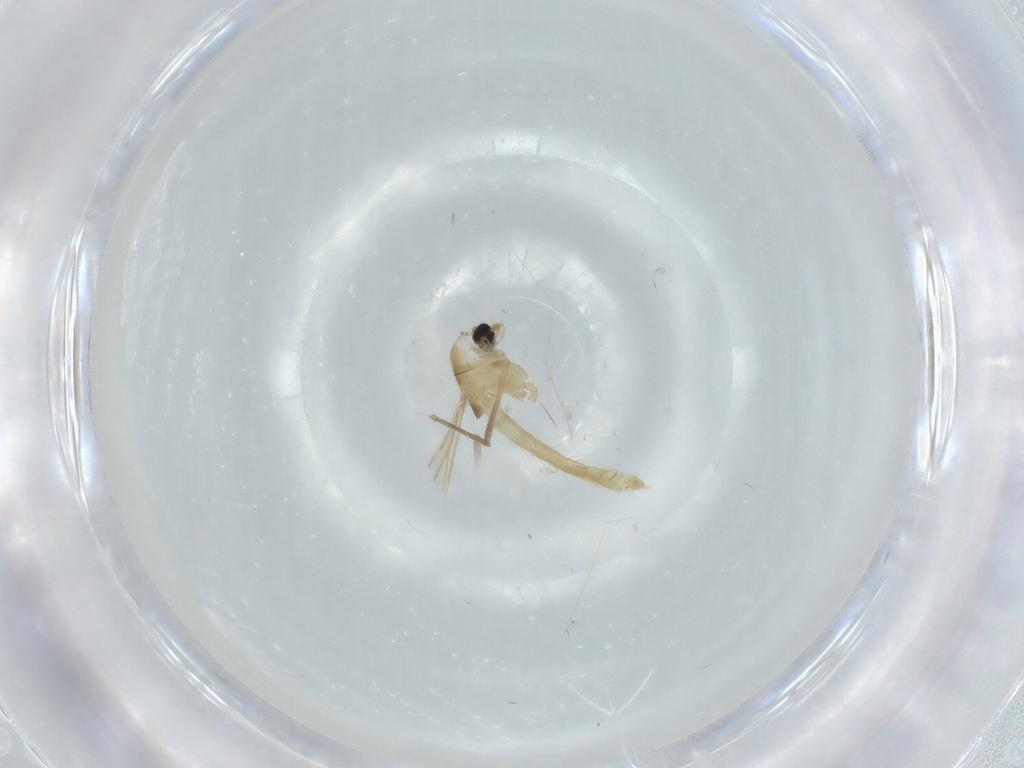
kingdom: Animalia
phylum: Arthropoda
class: Insecta
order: Diptera
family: Chironomidae
